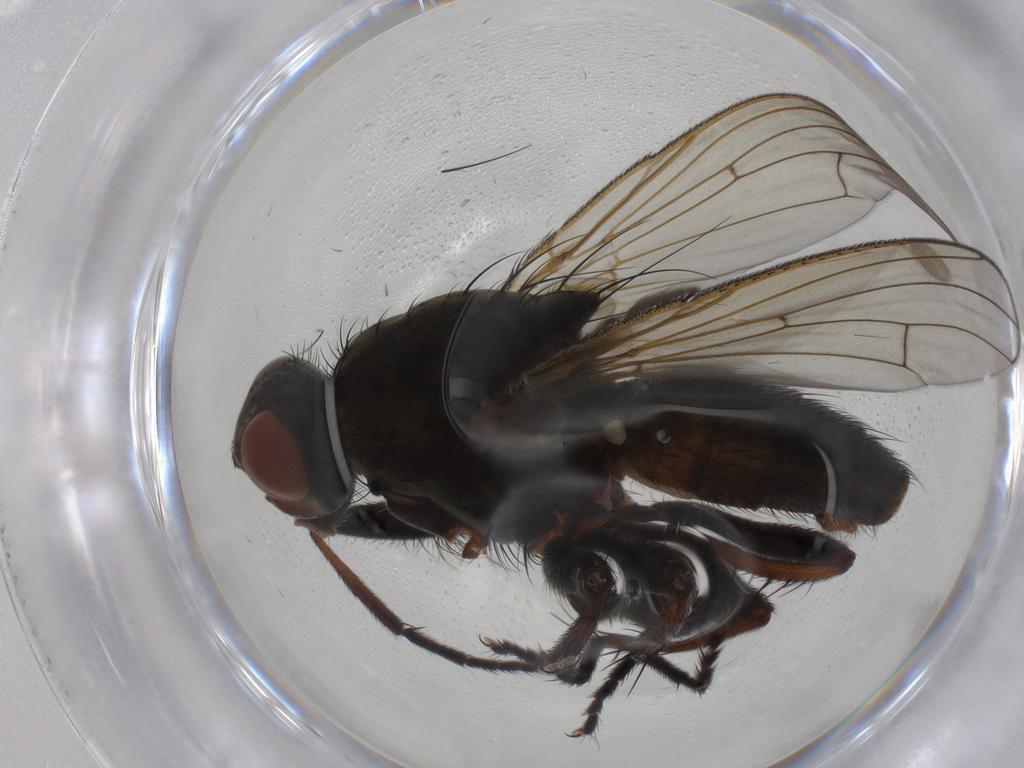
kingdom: Animalia
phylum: Arthropoda
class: Insecta
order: Diptera
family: Anthomyiidae
